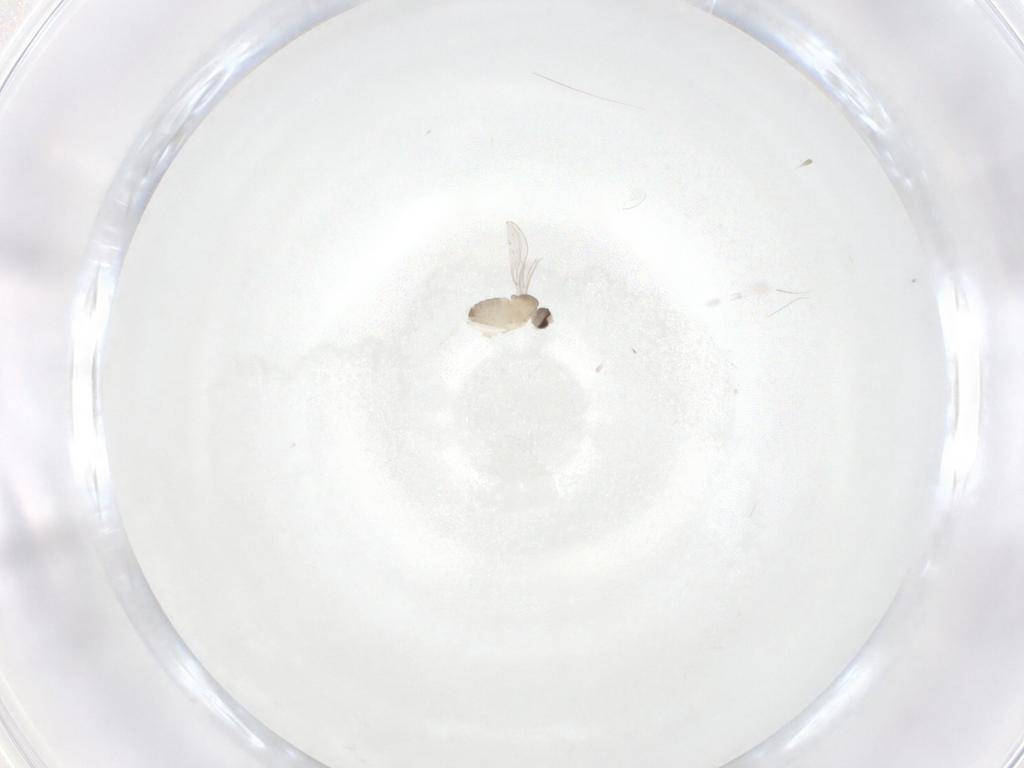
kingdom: Animalia
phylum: Arthropoda
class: Insecta
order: Diptera
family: Cecidomyiidae
